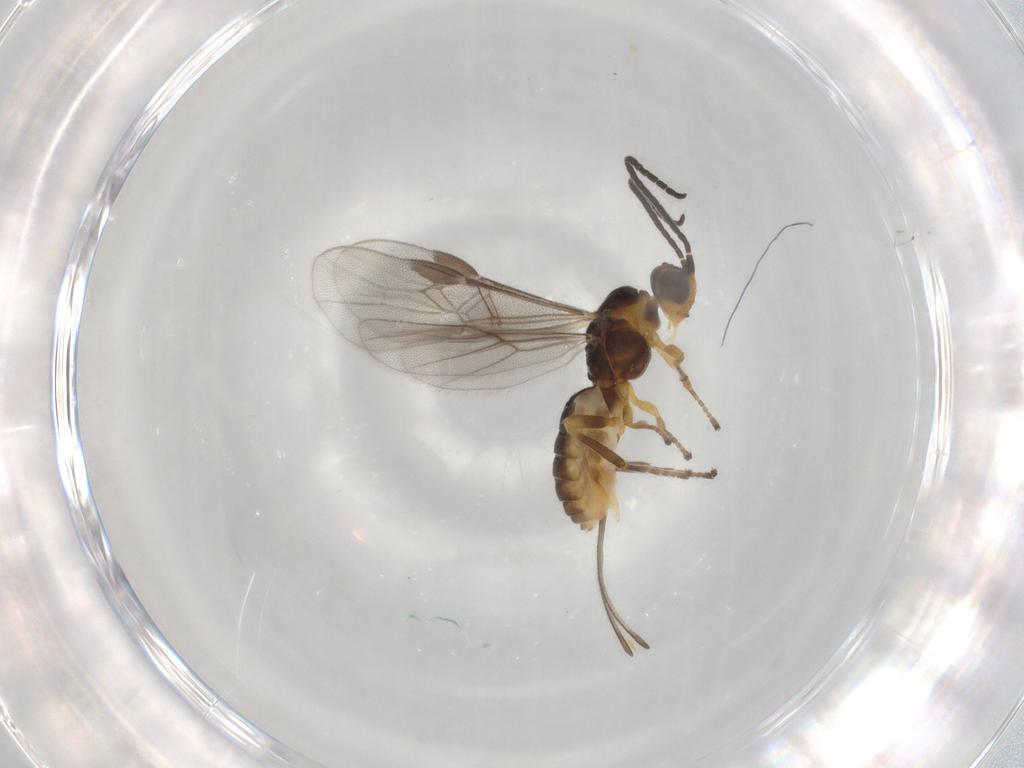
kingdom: Animalia
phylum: Arthropoda
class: Insecta
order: Hymenoptera
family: Braconidae
